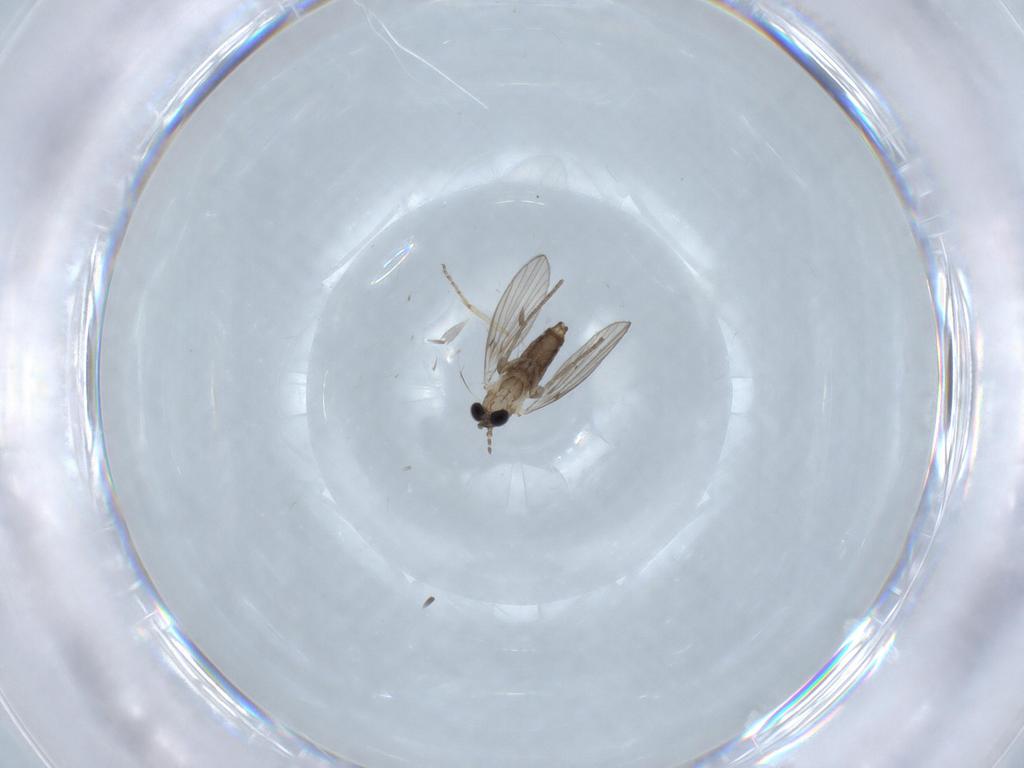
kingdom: Animalia
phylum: Arthropoda
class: Insecta
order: Diptera
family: Psychodidae
